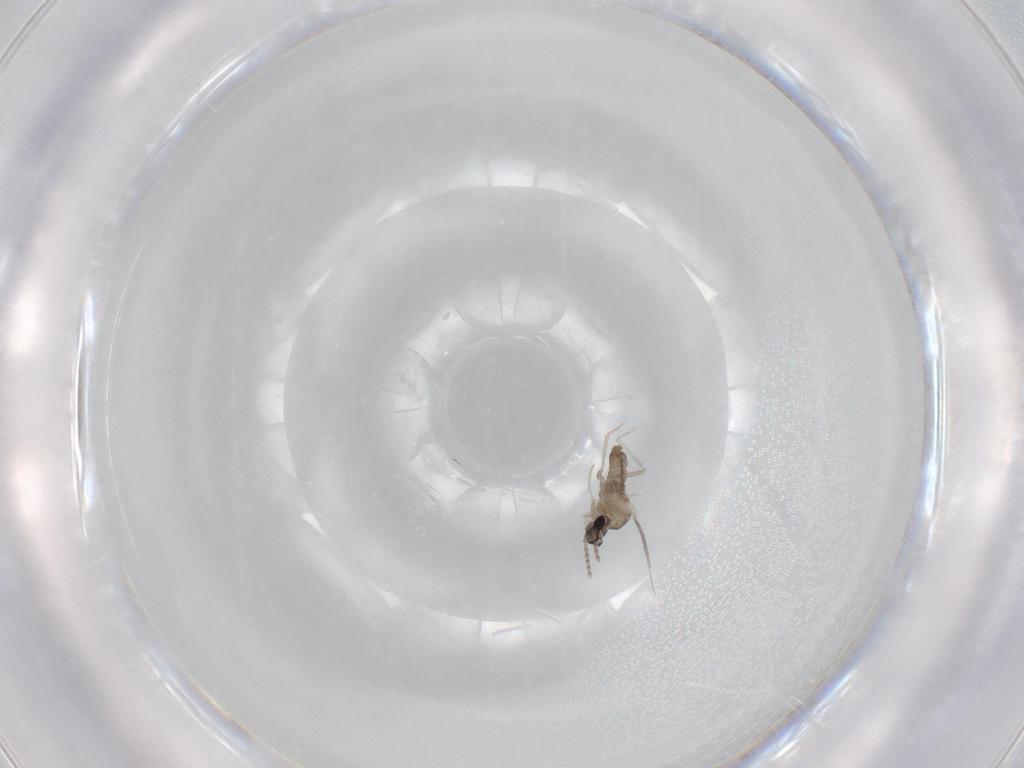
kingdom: Animalia
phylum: Arthropoda
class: Insecta
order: Diptera
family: Cecidomyiidae
